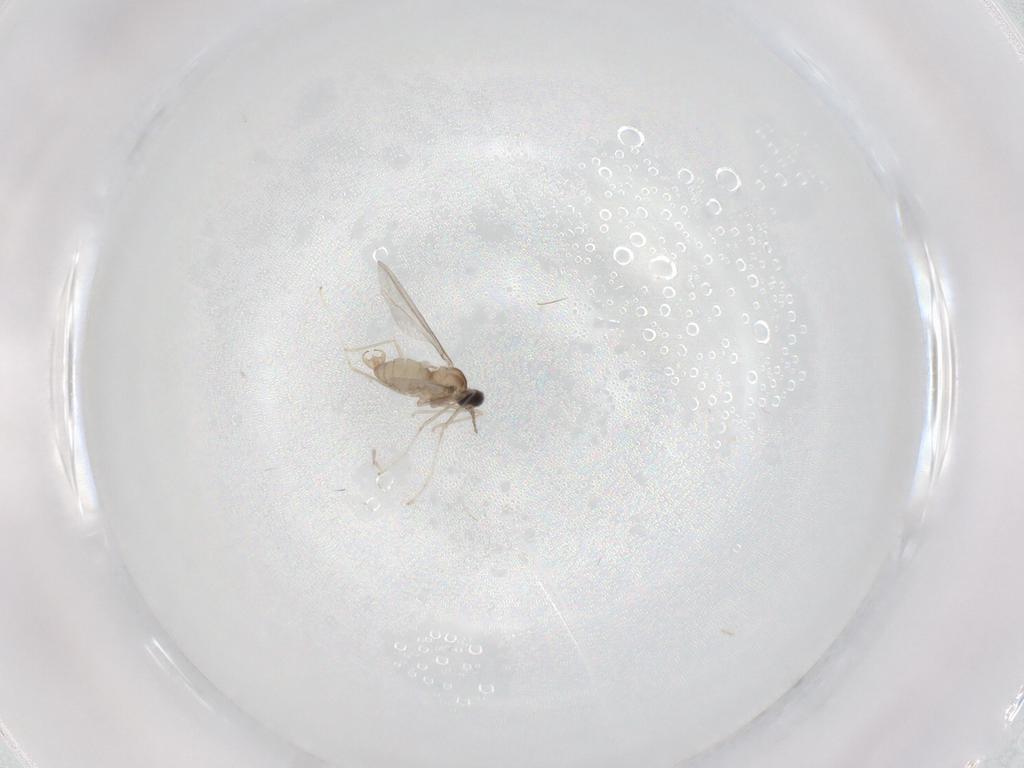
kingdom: Animalia
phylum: Arthropoda
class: Insecta
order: Diptera
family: Cecidomyiidae
